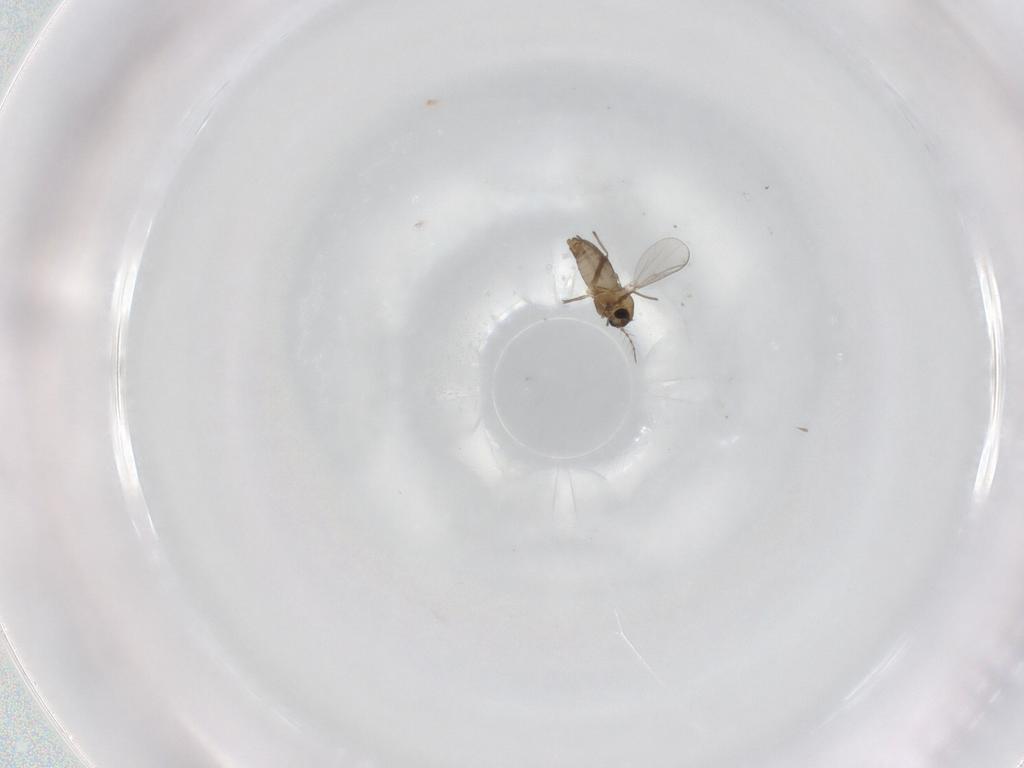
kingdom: Animalia
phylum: Arthropoda
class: Insecta
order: Diptera
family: Chironomidae
